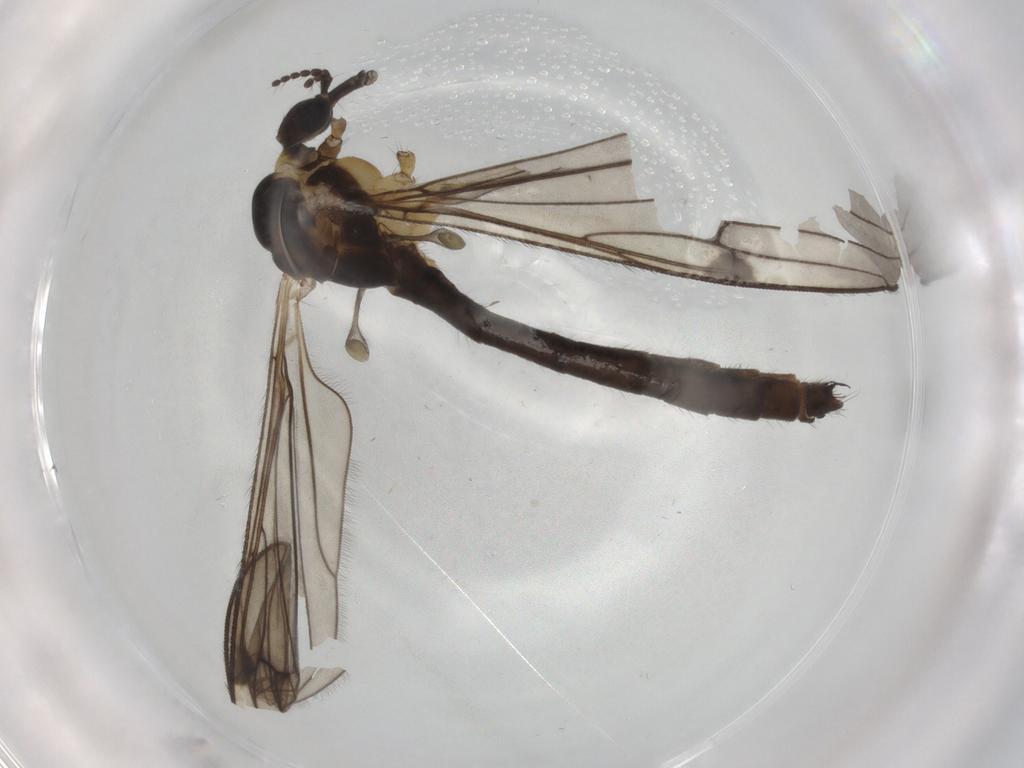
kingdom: Animalia
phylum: Arthropoda
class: Insecta
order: Diptera
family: Limoniidae
